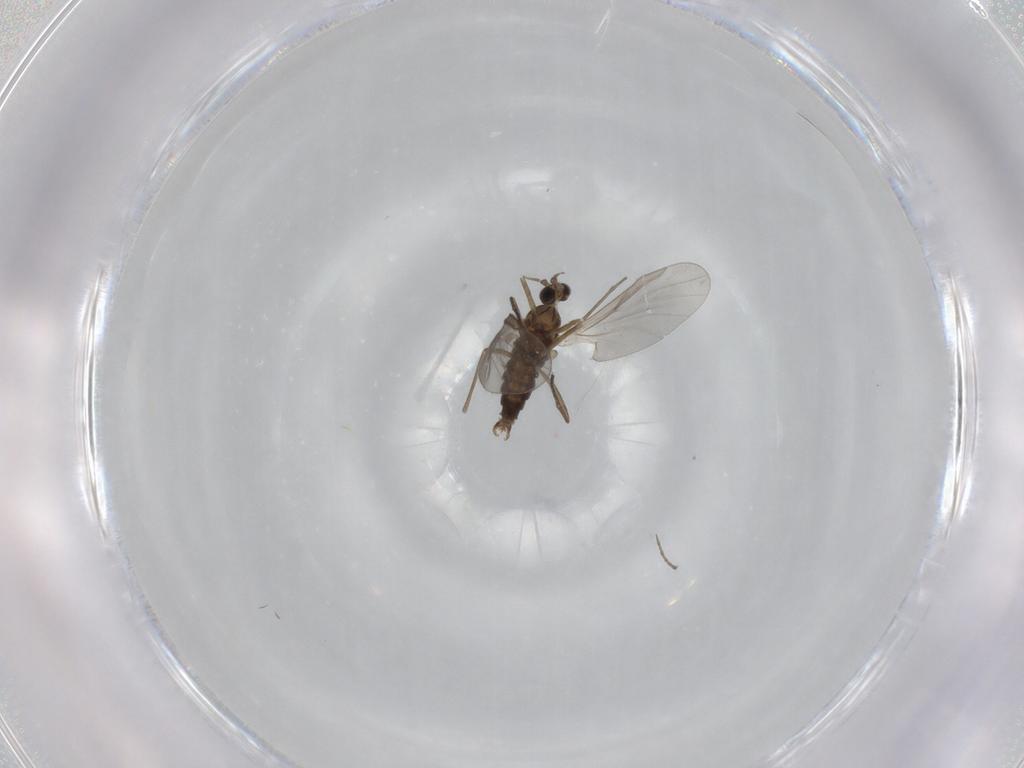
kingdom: Animalia
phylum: Arthropoda
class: Insecta
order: Diptera
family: Cecidomyiidae
